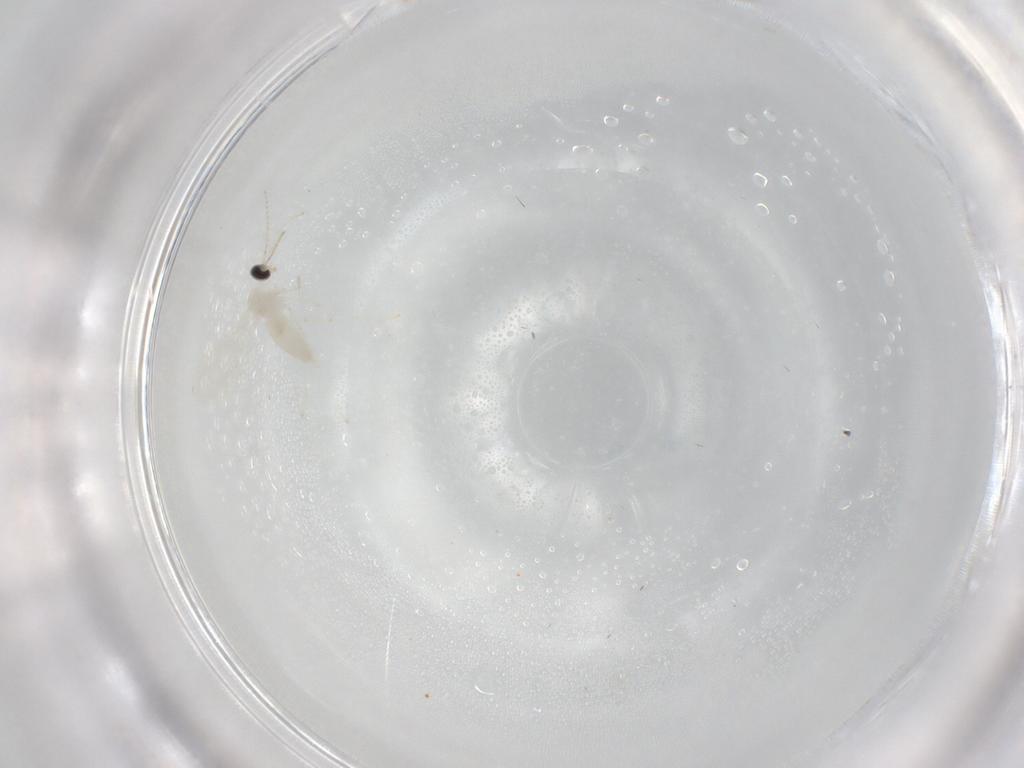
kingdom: Animalia
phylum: Arthropoda
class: Insecta
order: Diptera
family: Cecidomyiidae
